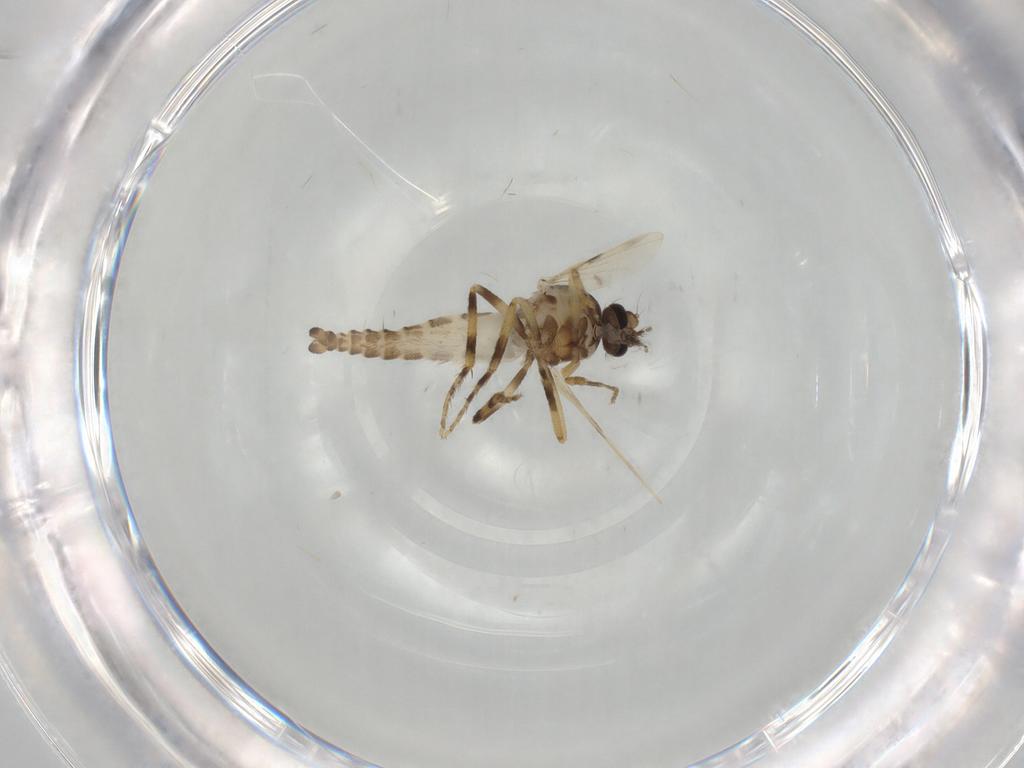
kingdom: Animalia
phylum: Arthropoda
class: Insecta
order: Diptera
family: Ceratopogonidae
